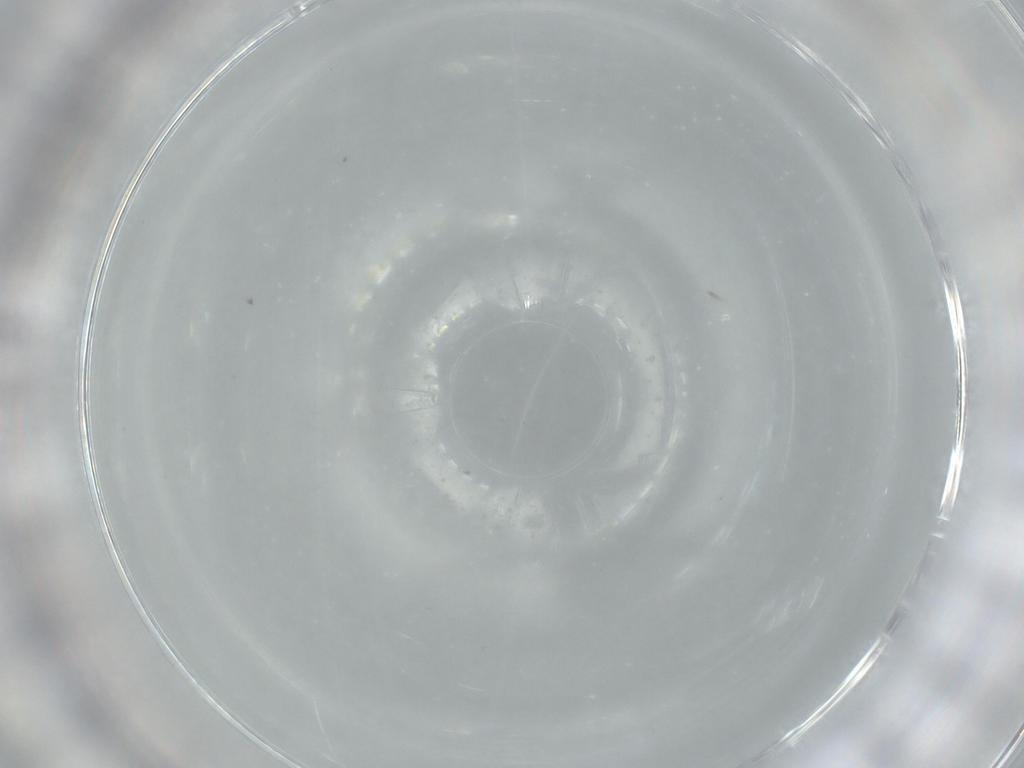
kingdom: Animalia
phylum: Arthropoda
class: Insecta
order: Diptera
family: Cecidomyiidae
